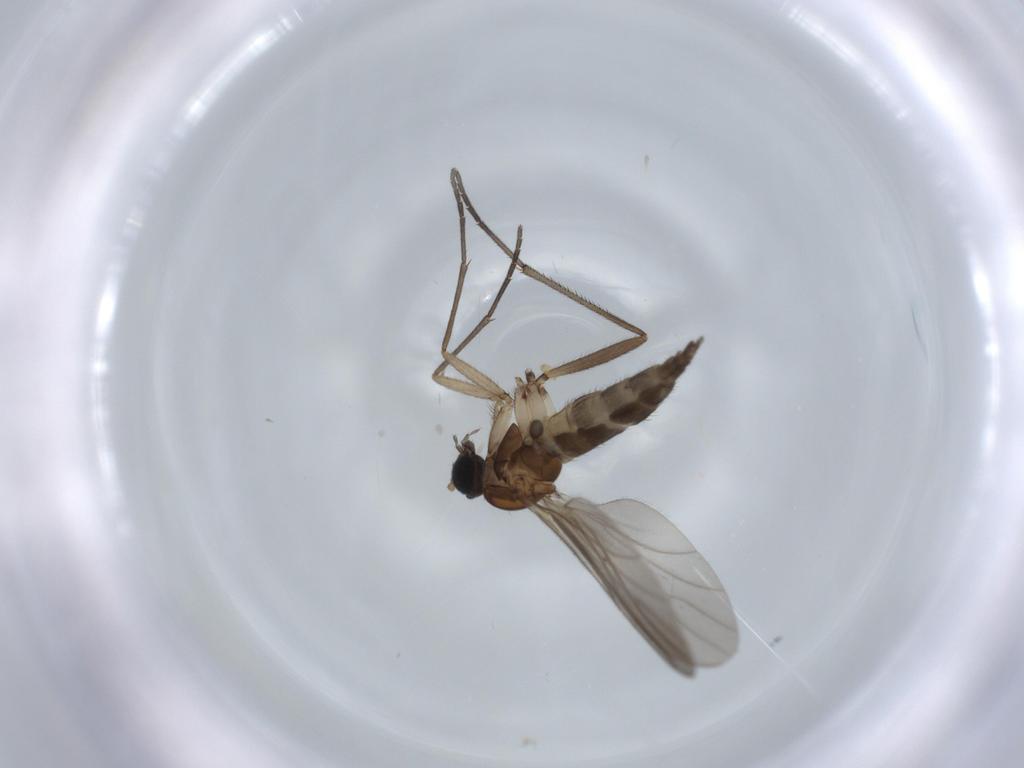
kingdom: Animalia
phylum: Arthropoda
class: Insecta
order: Diptera
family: Sciaridae
